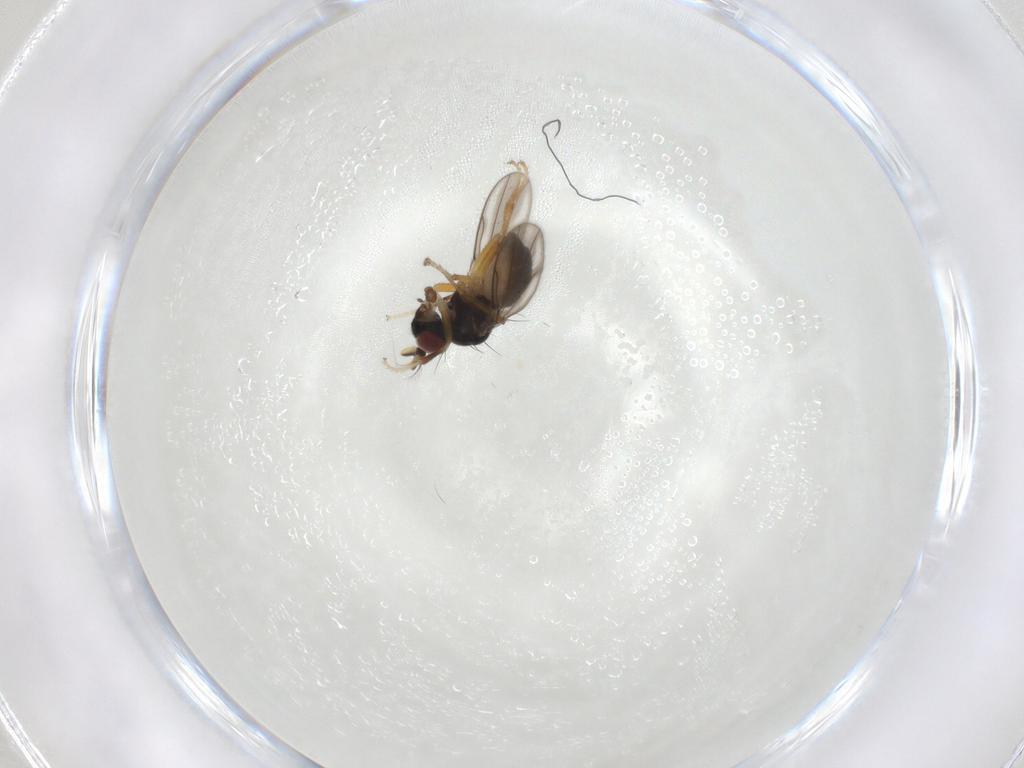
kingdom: Animalia
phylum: Arthropoda
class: Insecta
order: Diptera
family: Ephydridae
